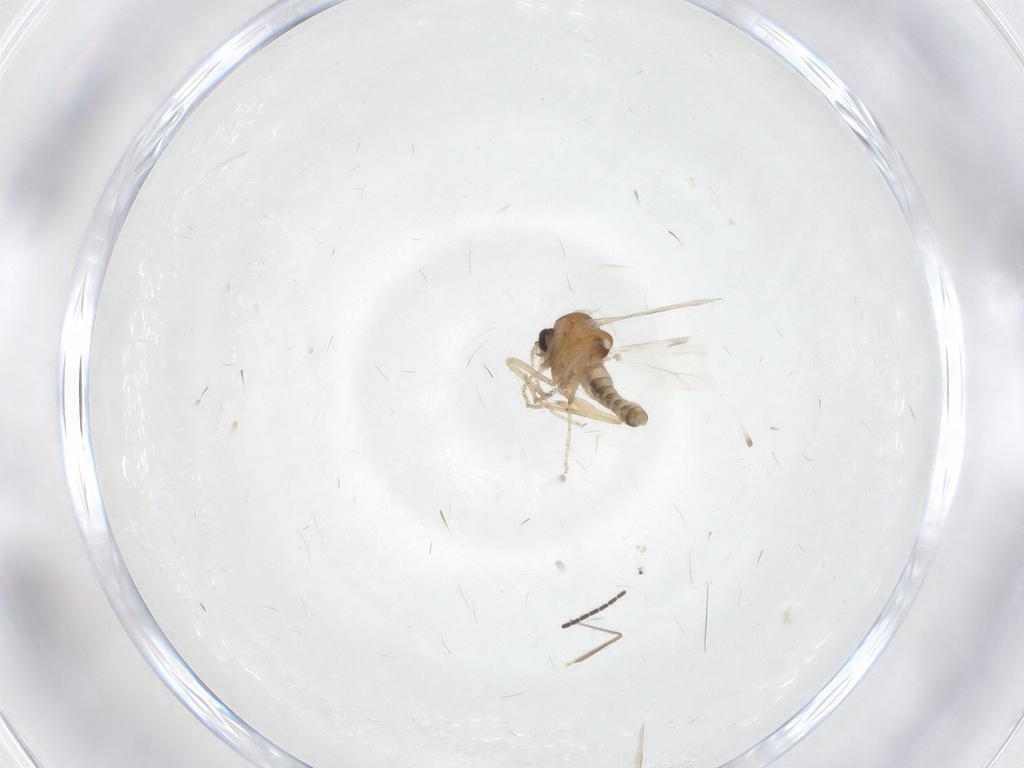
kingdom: Animalia
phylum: Arthropoda
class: Insecta
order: Diptera
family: Ceratopogonidae
